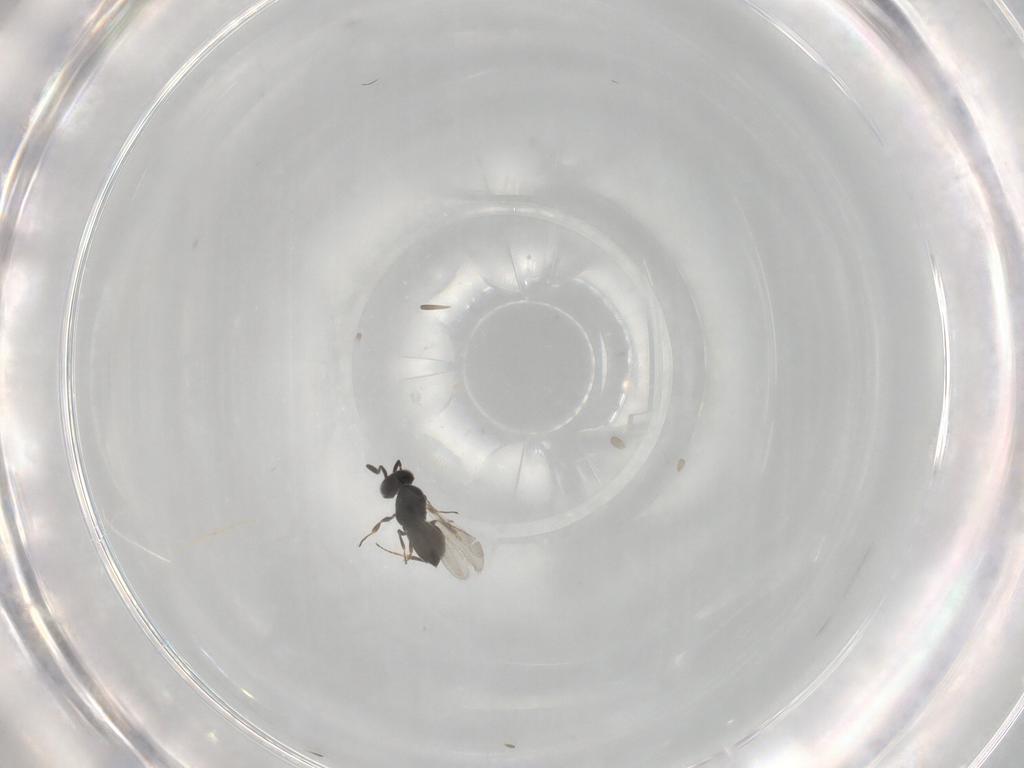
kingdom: Animalia
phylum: Arthropoda
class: Insecta
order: Hymenoptera
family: Scelionidae
